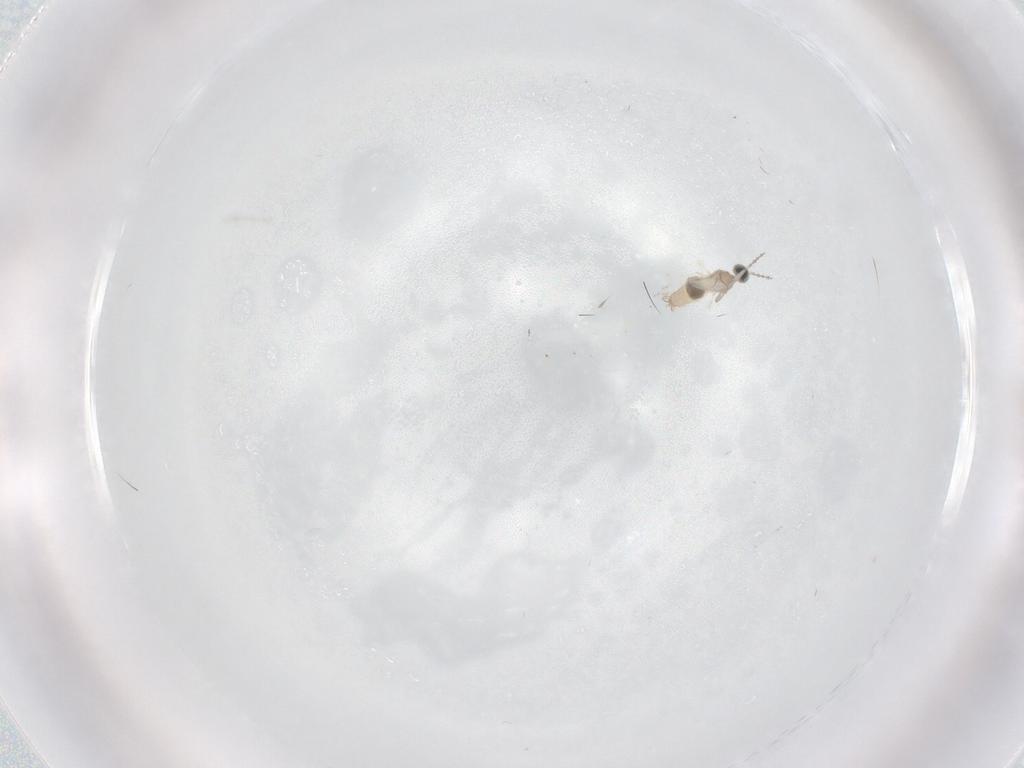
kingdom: Animalia
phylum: Arthropoda
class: Insecta
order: Diptera
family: Cecidomyiidae
